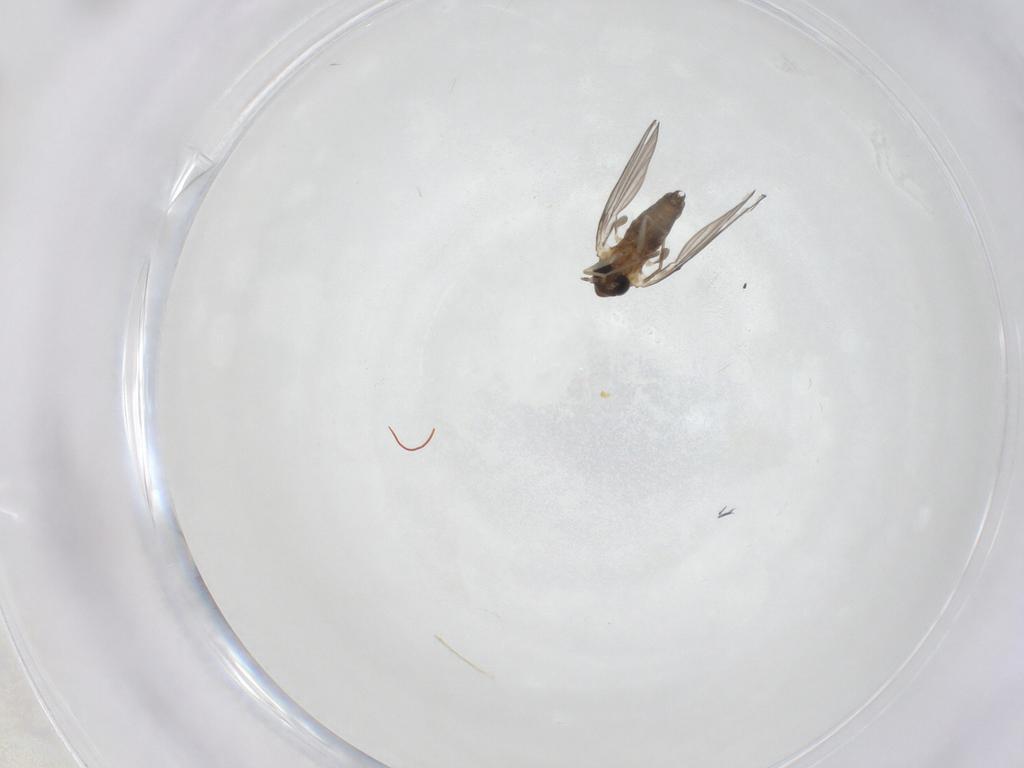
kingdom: Animalia
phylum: Arthropoda
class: Insecta
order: Diptera
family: Psychodidae
